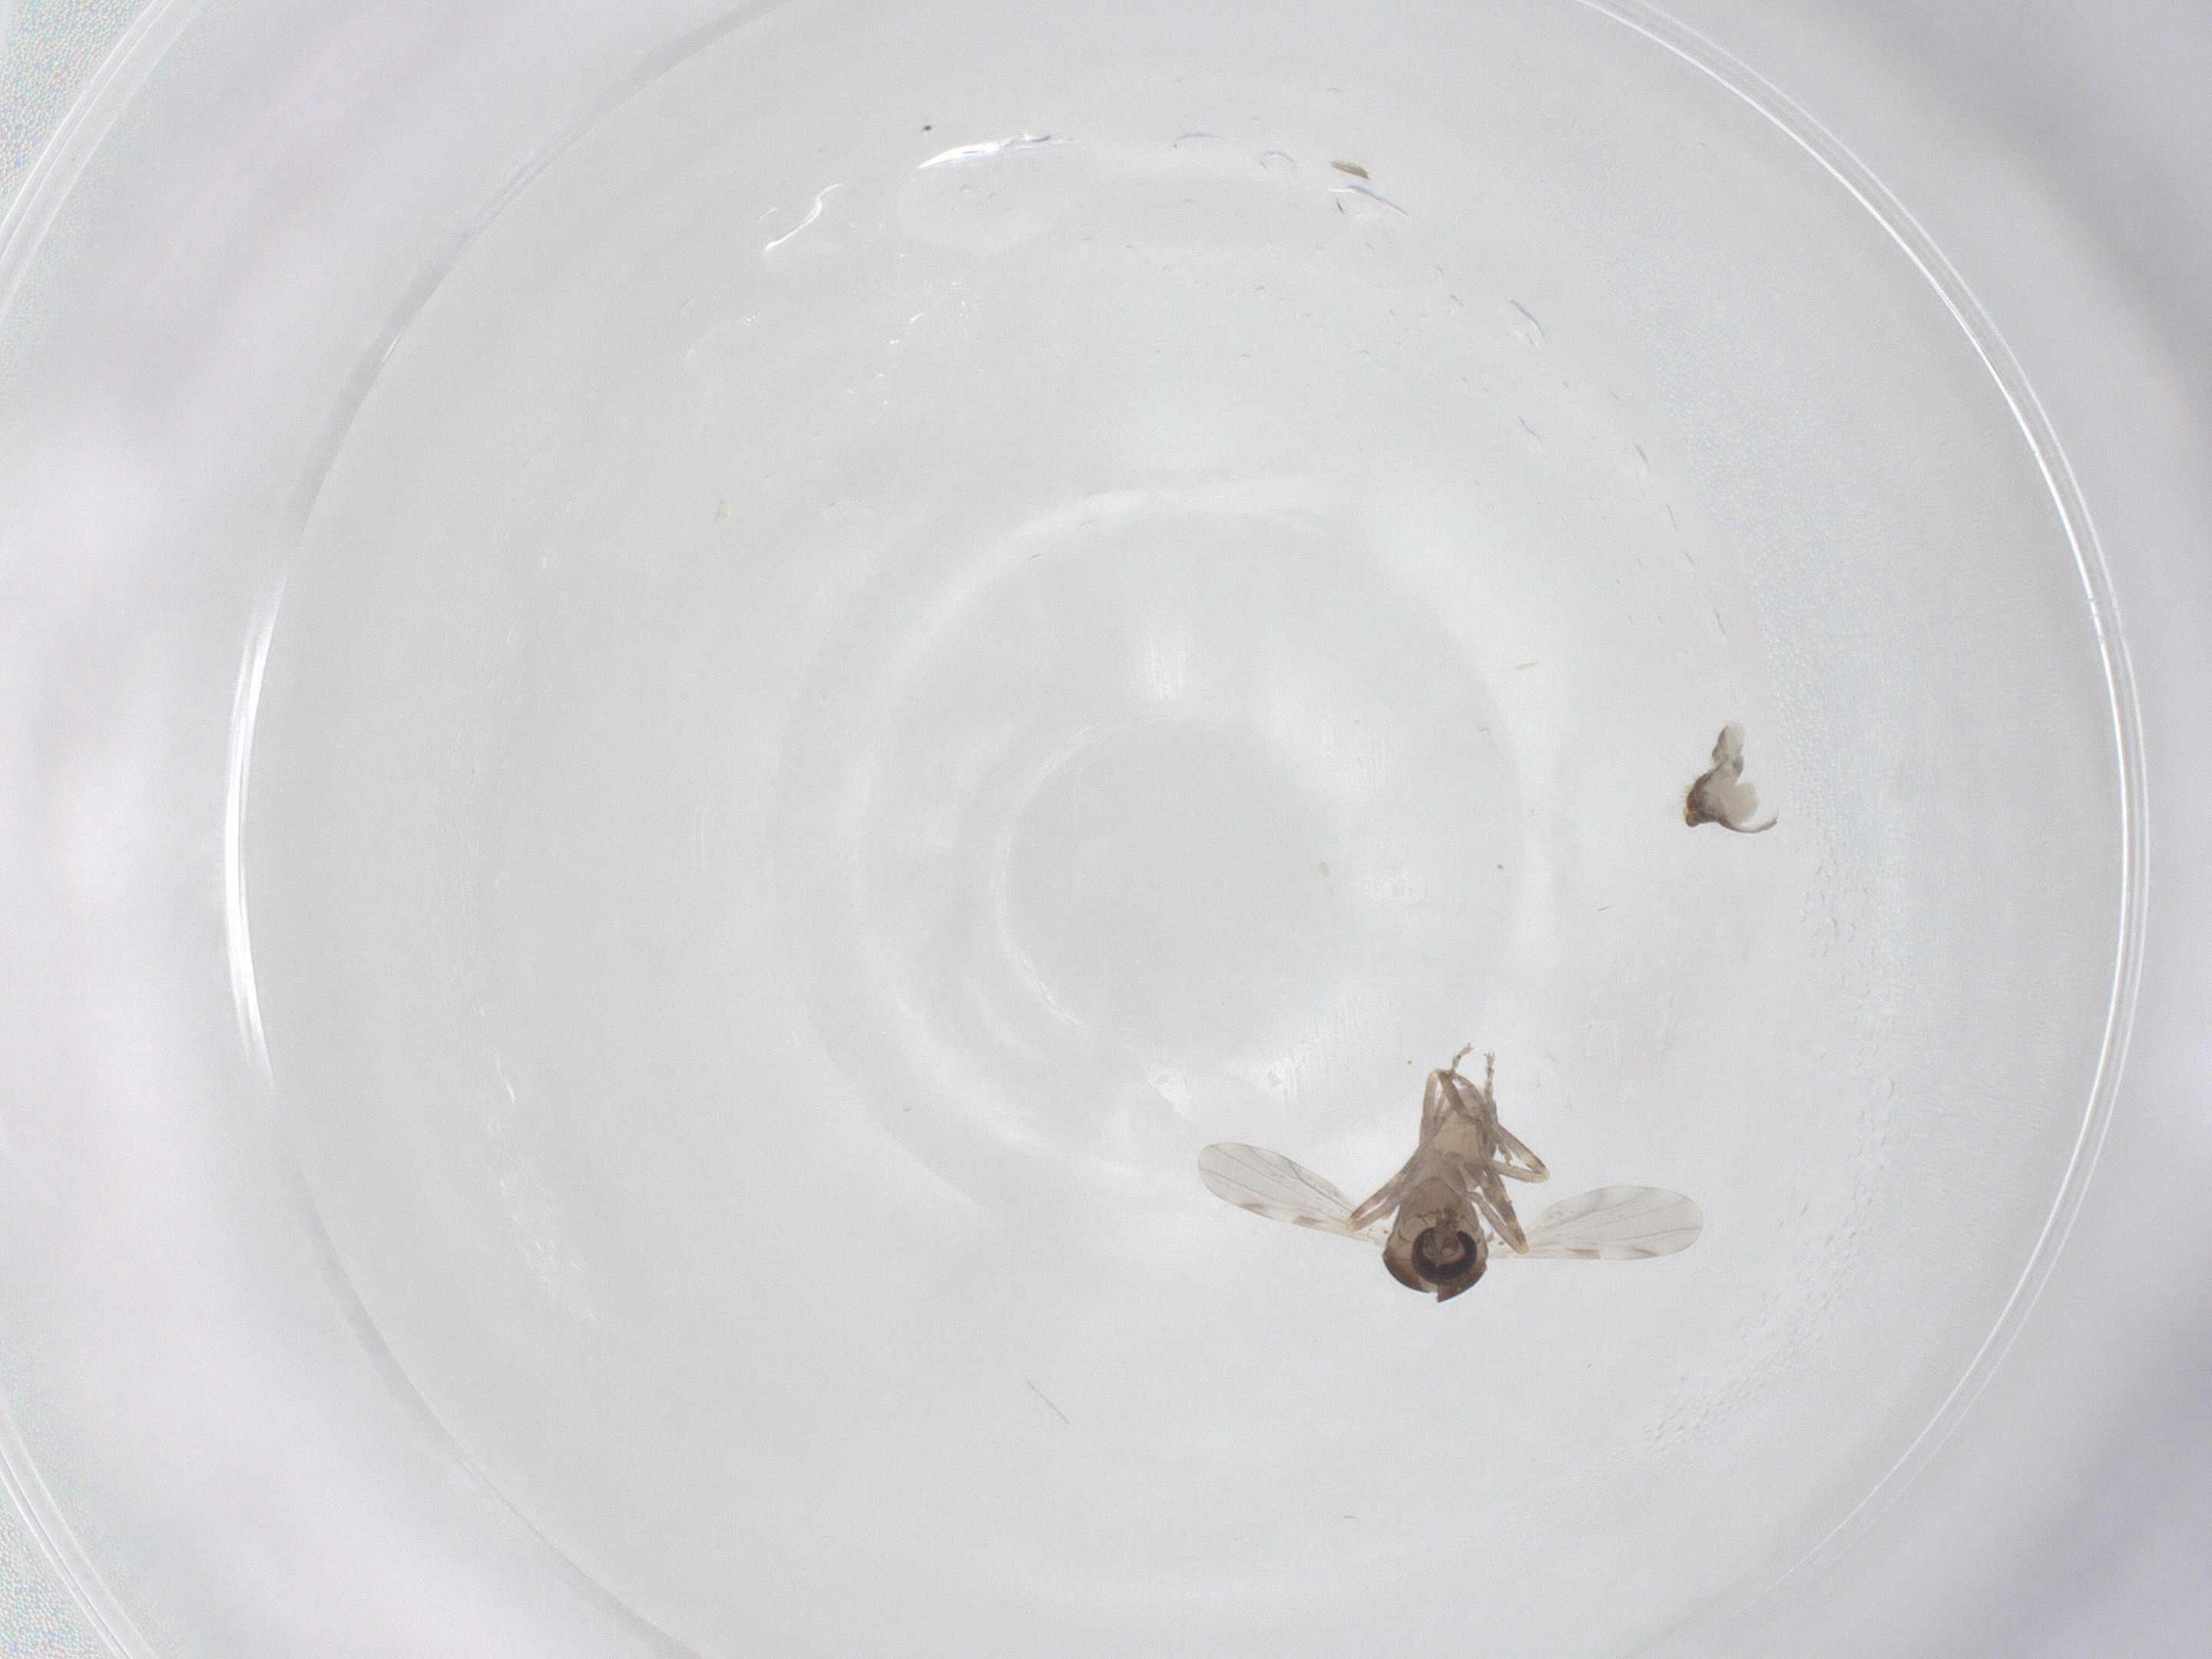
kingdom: Animalia
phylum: Arthropoda
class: Insecta
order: Diptera
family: Ceratopogonidae
